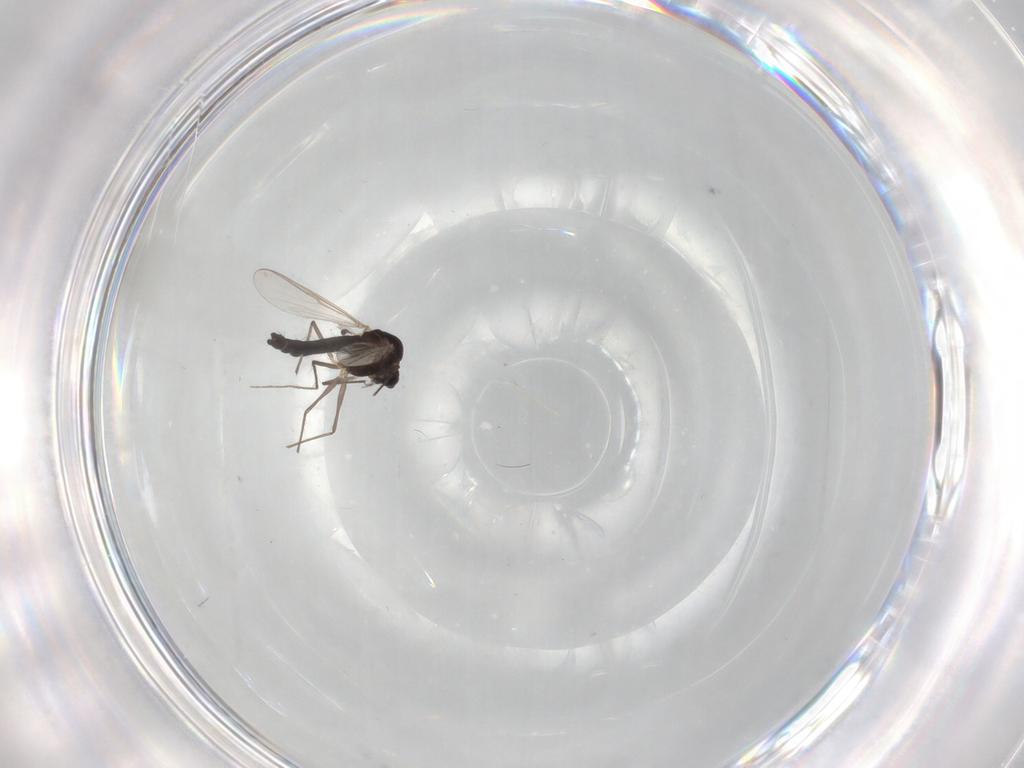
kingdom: Animalia
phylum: Arthropoda
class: Insecta
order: Diptera
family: Chironomidae
